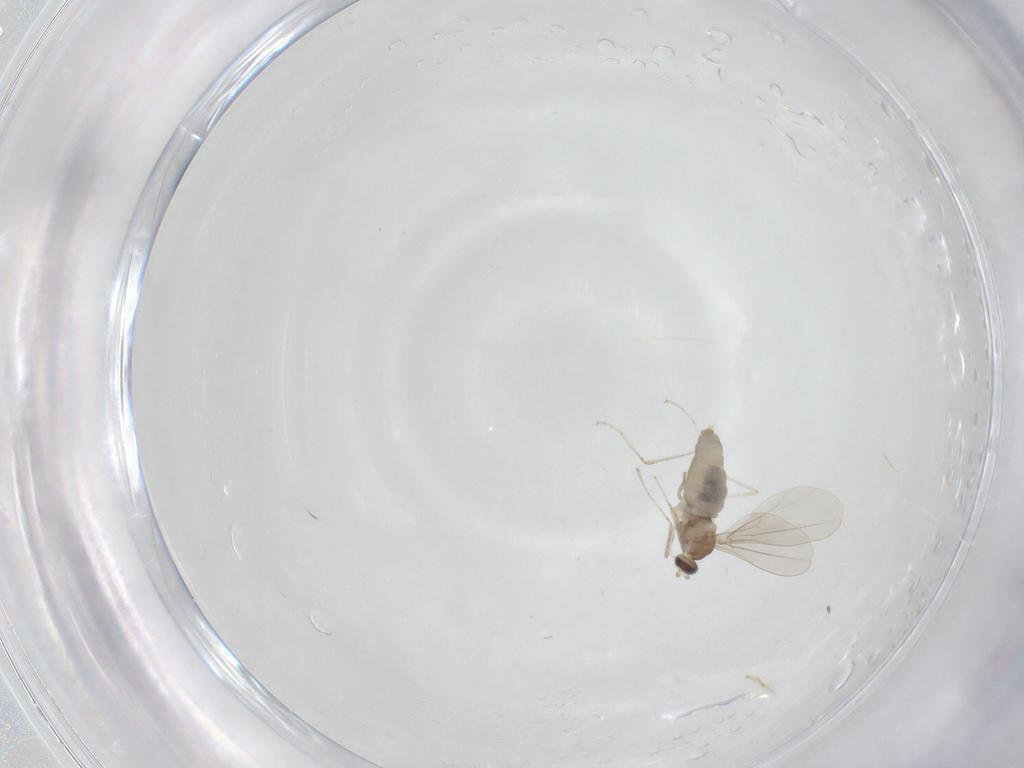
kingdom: Animalia
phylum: Arthropoda
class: Insecta
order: Diptera
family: Cecidomyiidae
